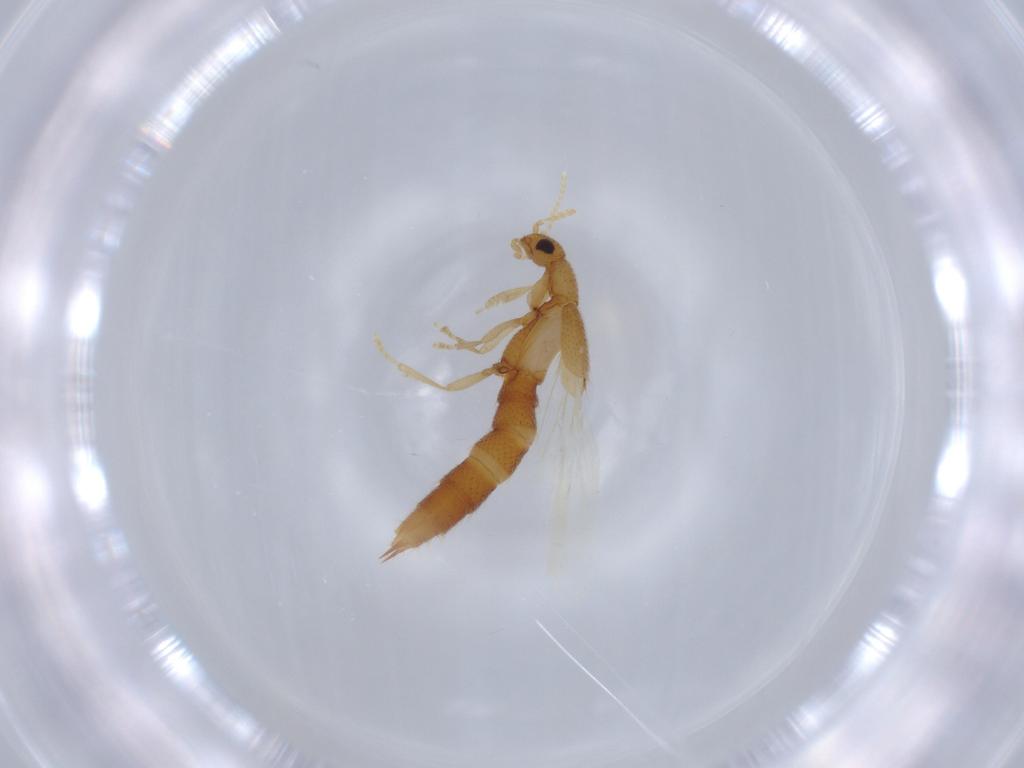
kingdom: Animalia
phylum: Arthropoda
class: Insecta
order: Coleoptera
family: Staphylinidae
